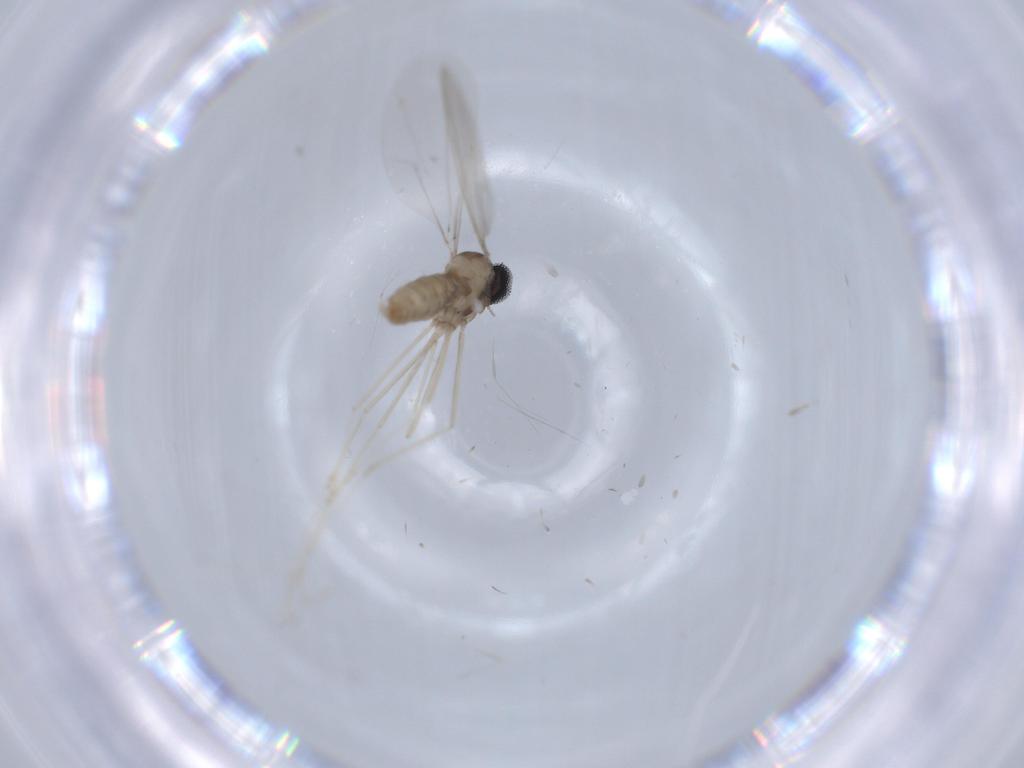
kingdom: Animalia
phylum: Arthropoda
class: Insecta
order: Diptera
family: Cecidomyiidae
